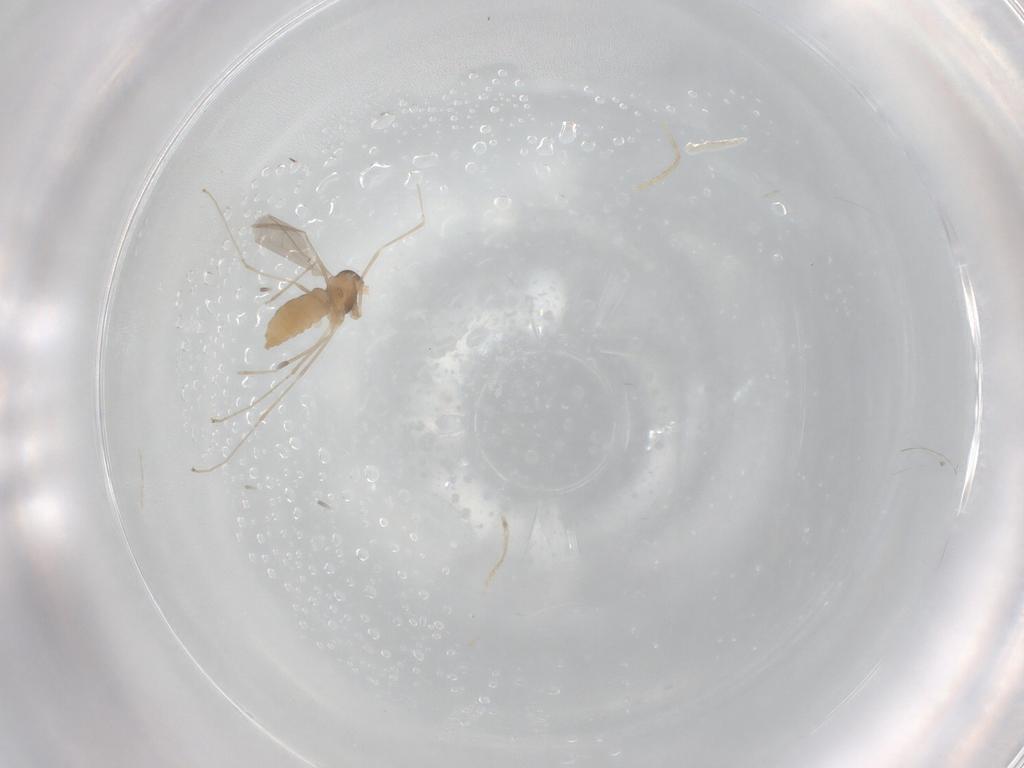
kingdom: Animalia
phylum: Arthropoda
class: Insecta
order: Diptera
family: Cecidomyiidae
